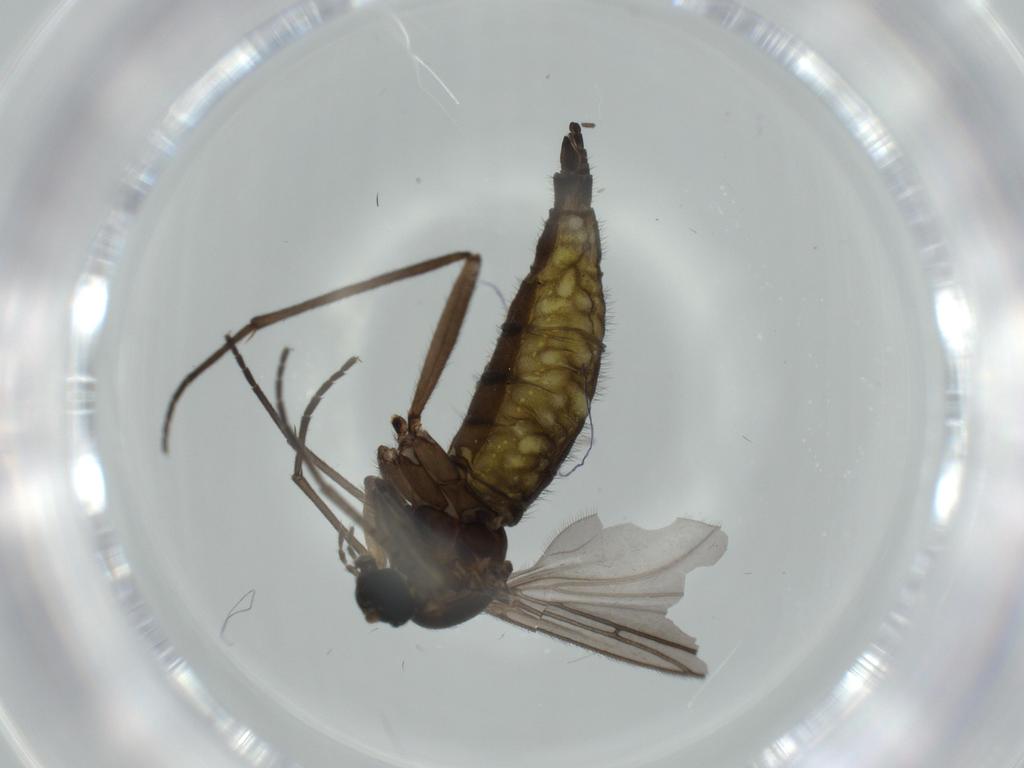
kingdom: Animalia
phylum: Arthropoda
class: Insecta
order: Diptera
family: Sciaridae
